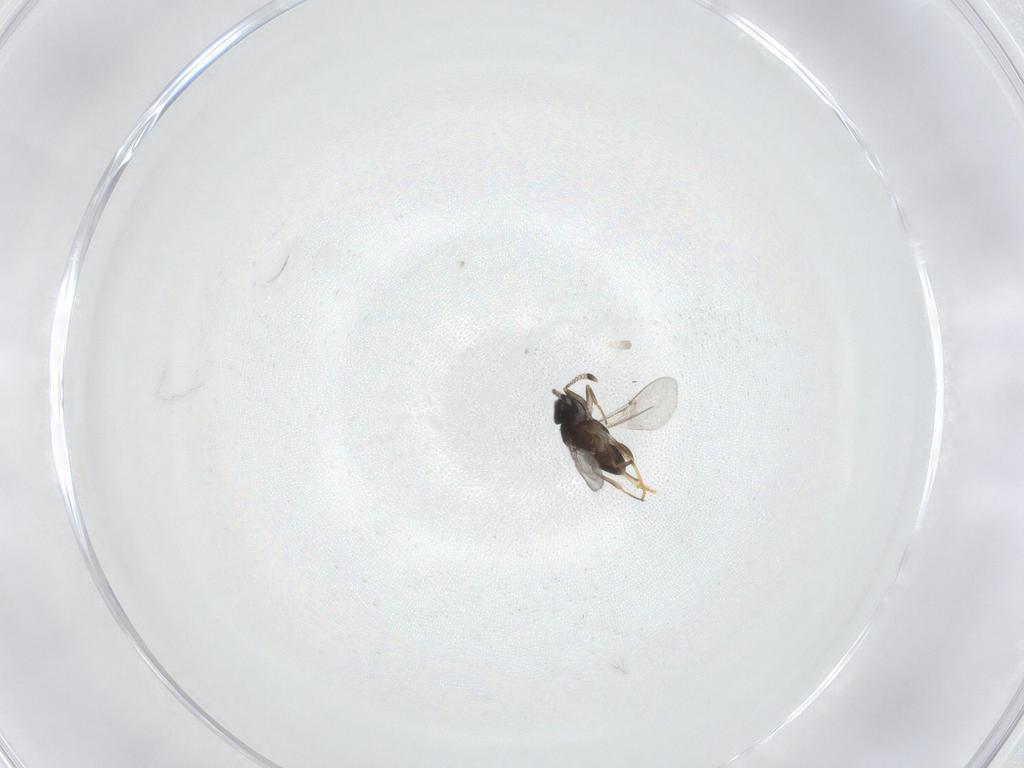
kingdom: Animalia
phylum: Arthropoda
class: Insecta
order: Hymenoptera
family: Encyrtidae
